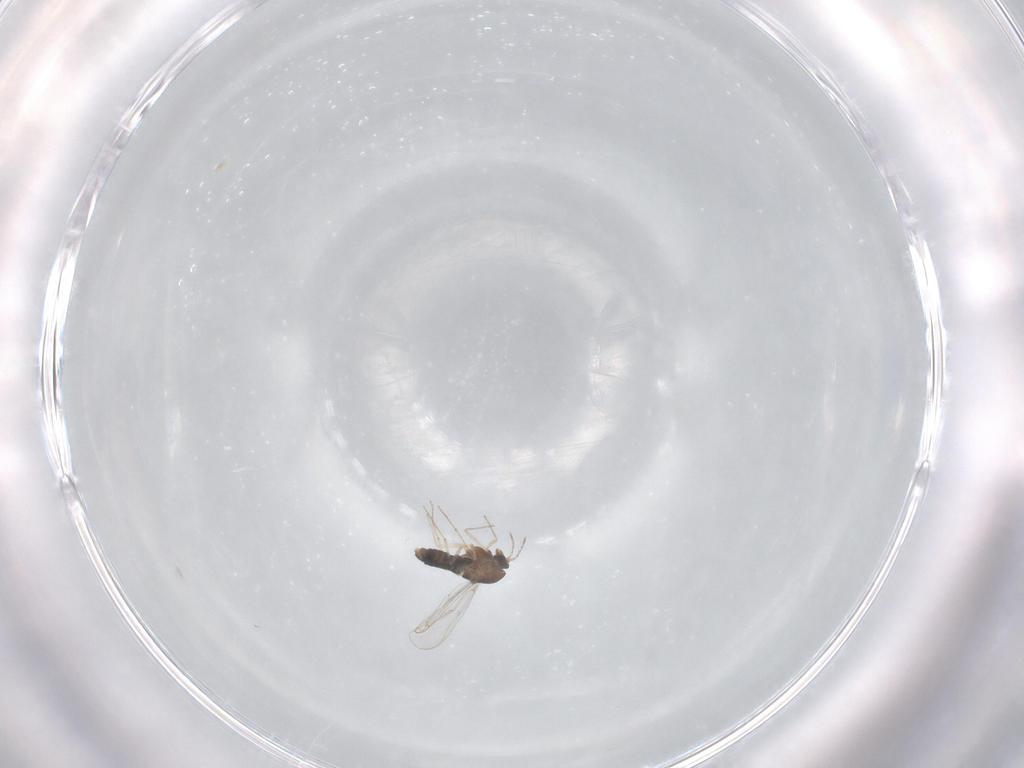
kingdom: Animalia
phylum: Arthropoda
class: Insecta
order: Diptera
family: Chironomidae
